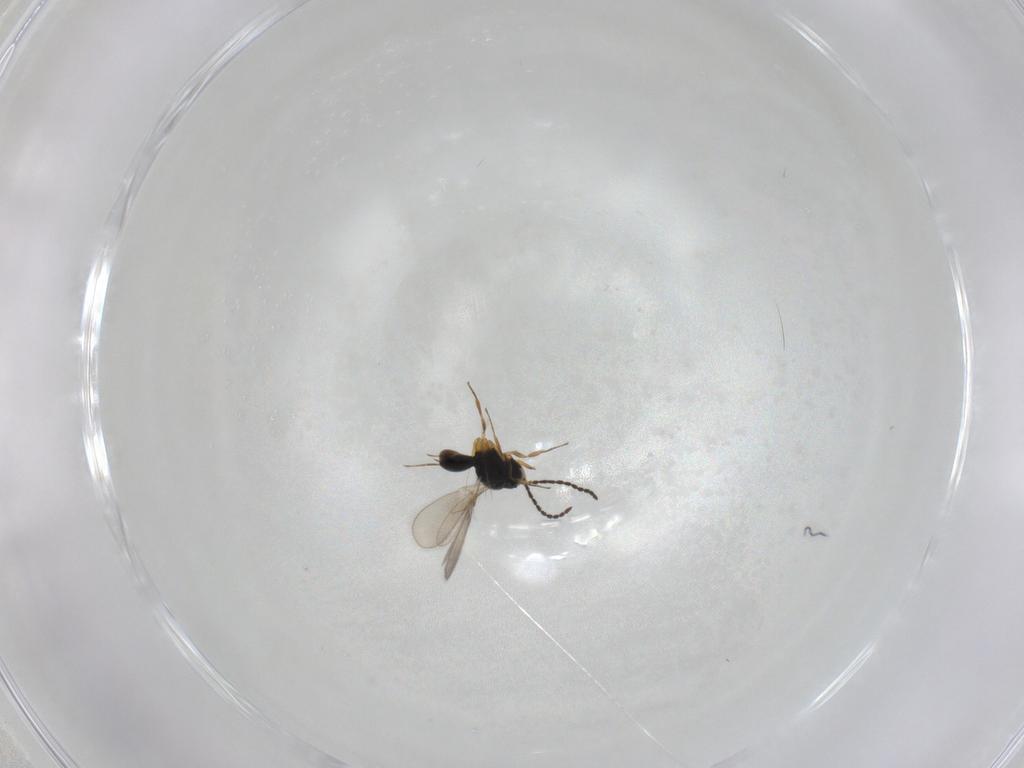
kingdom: Animalia
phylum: Arthropoda
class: Insecta
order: Hymenoptera
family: Scelionidae
